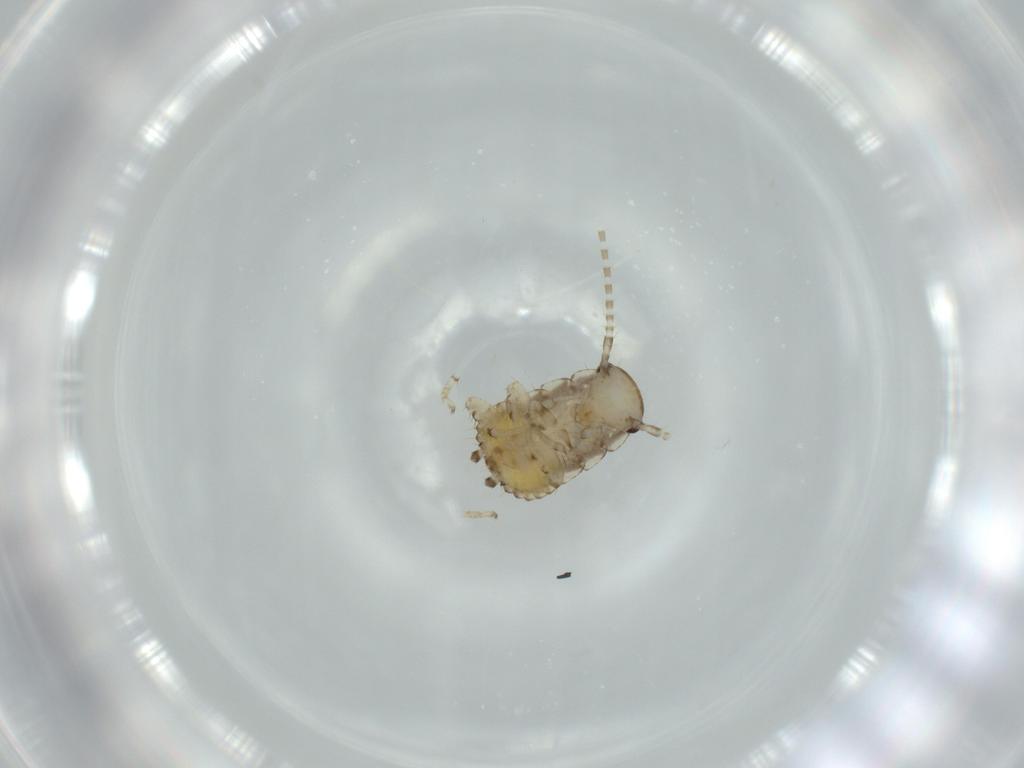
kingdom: Animalia
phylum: Arthropoda
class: Insecta
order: Blattodea
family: Ectobiidae
